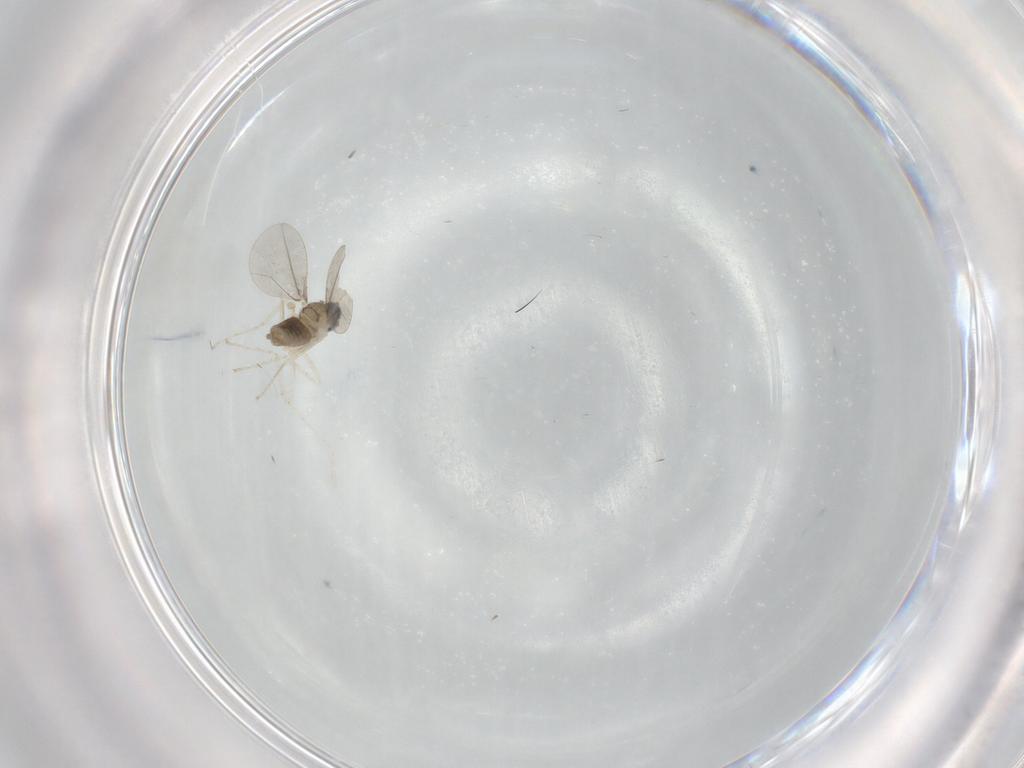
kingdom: Animalia
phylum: Arthropoda
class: Insecta
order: Diptera
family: Cecidomyiidae
